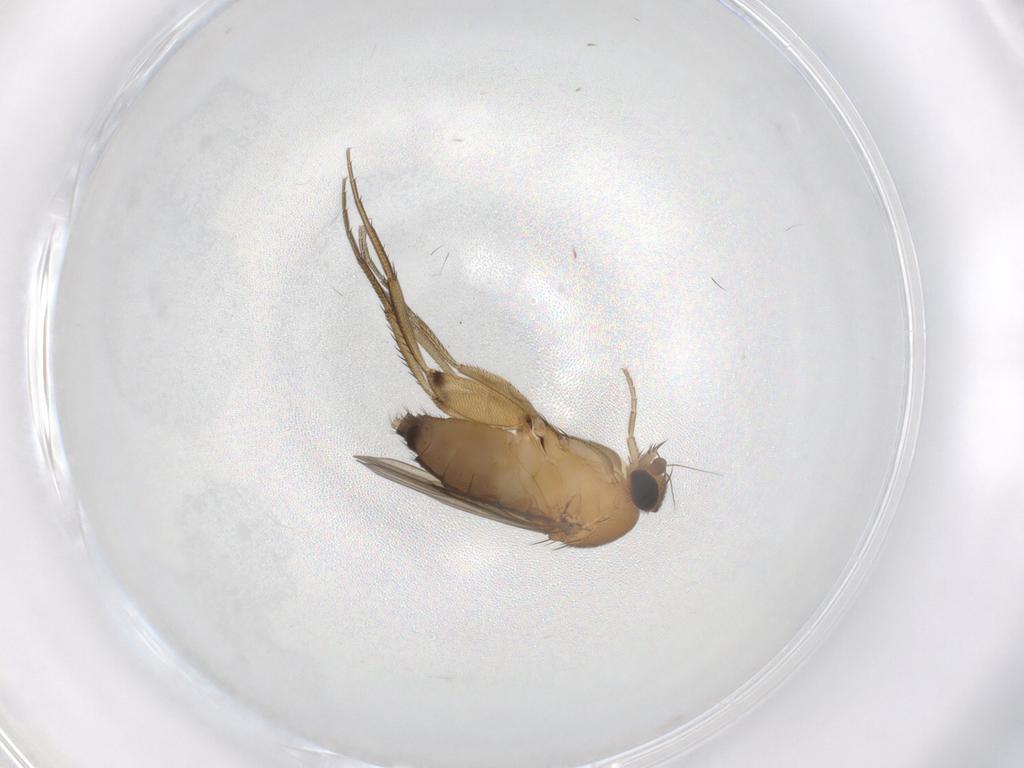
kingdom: Animalia
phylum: Arthropoda
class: Insecta
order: Diptera
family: Phoridae
